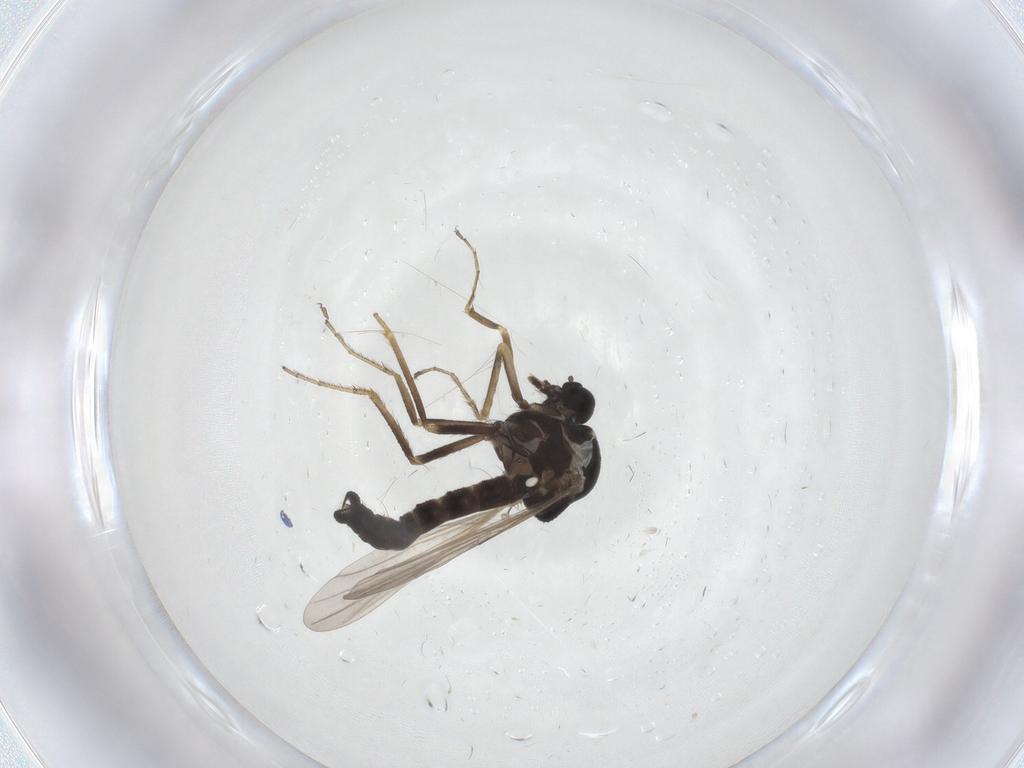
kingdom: Animalia
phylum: Arthropoda
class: Insecta
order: Diptera
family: Ceratopogonidae
